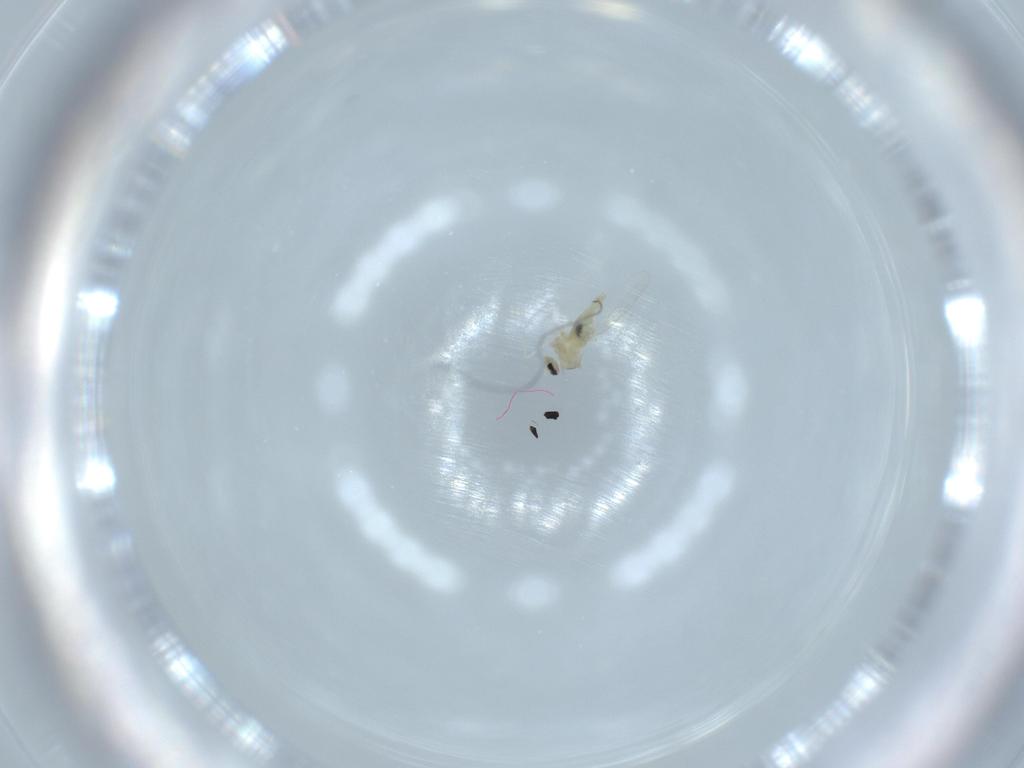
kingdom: Animalia
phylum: Arthropoda
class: Insecta
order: Diptera
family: Cecidomyiidae
